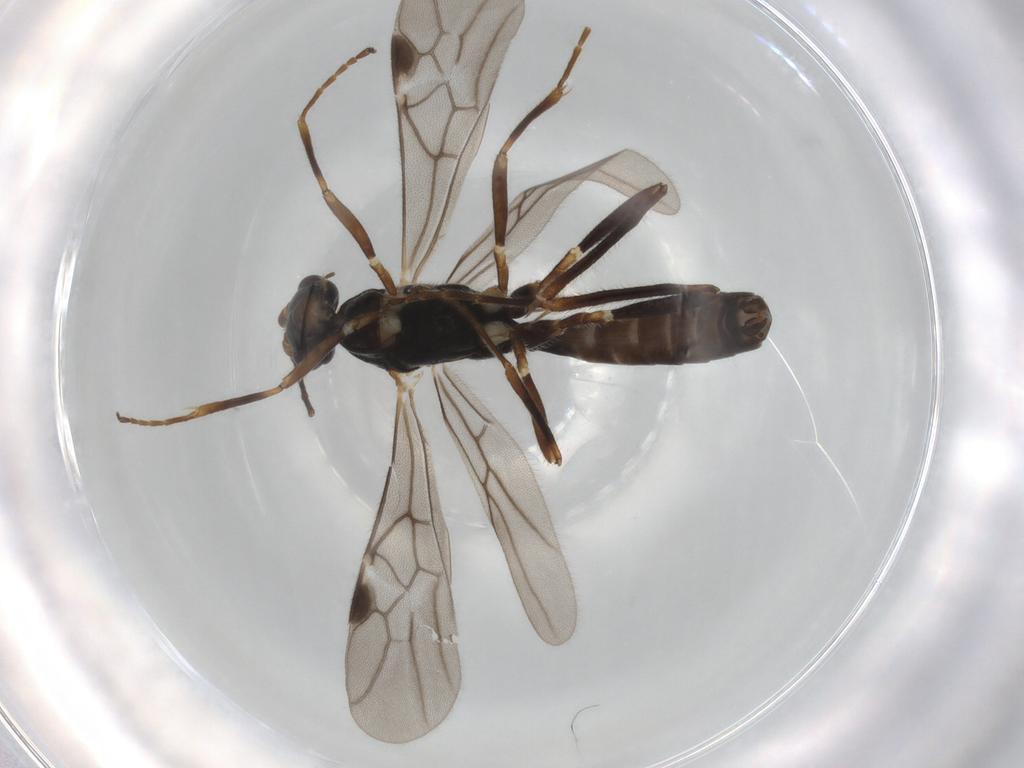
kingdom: Animalia
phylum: Arthropoda
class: Insecta
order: Hymenoptera
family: Braconidae
